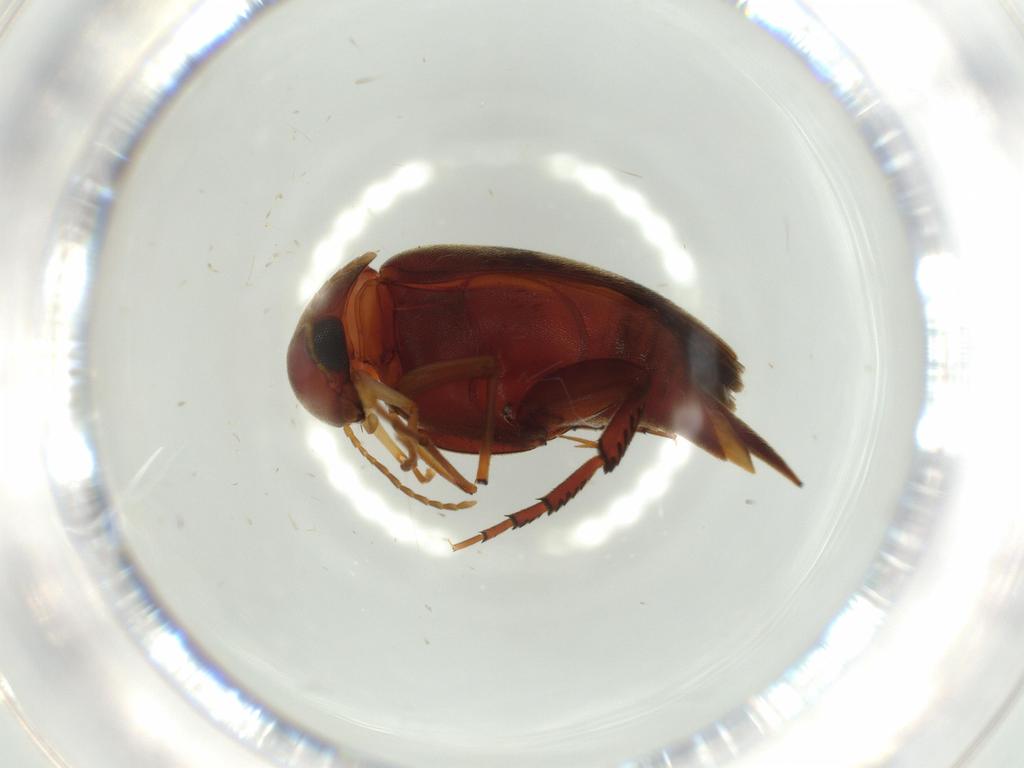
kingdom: Animalia
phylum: Arthropoda
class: Insecta
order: Coleoptera
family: Mordellidae
